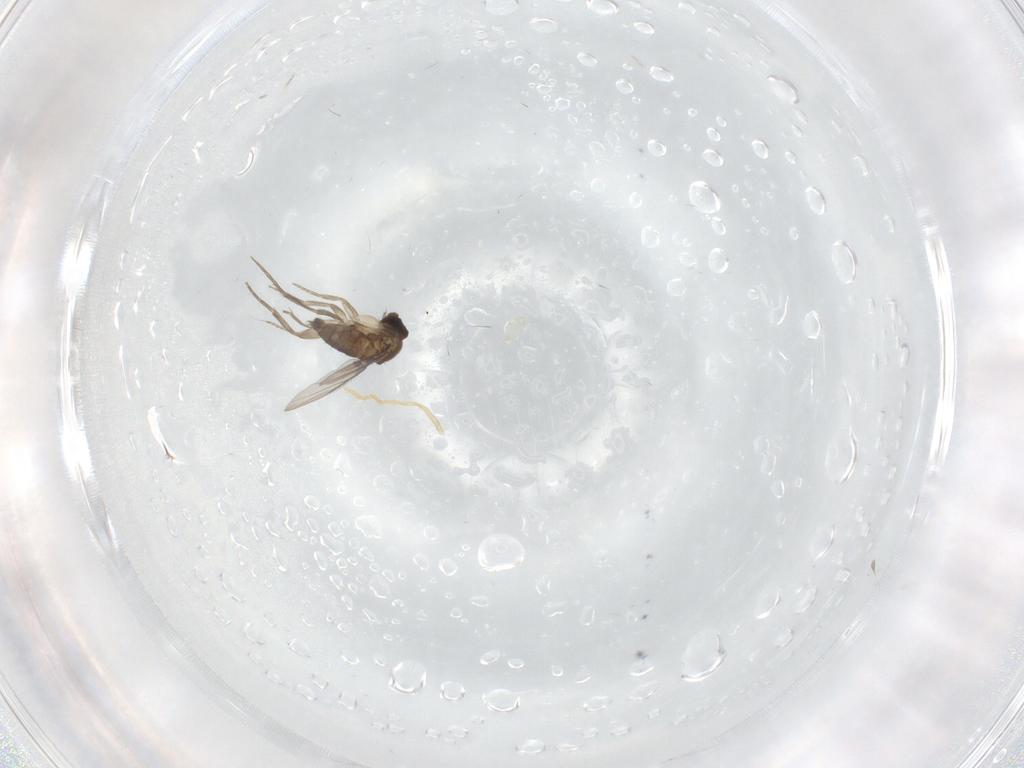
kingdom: Animalia
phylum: Arthropoda
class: Insecta
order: Diptera
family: Phoridae
